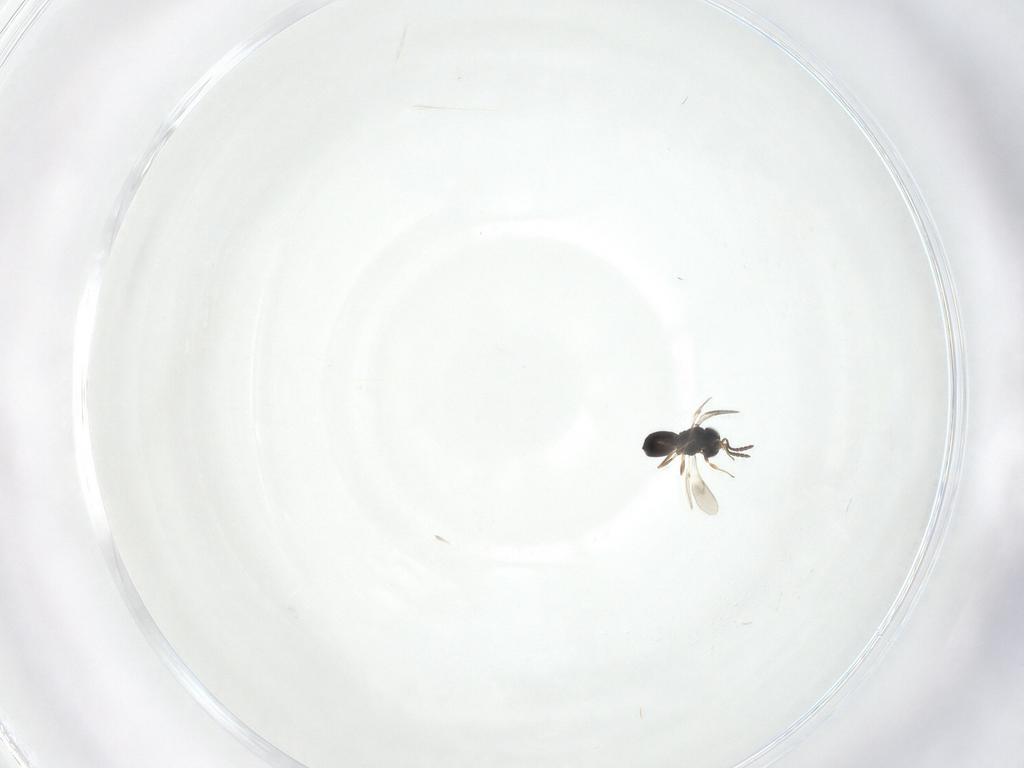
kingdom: Animalia
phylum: Arthropoda
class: Insecta
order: Hymenoptera
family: Scelionidae
